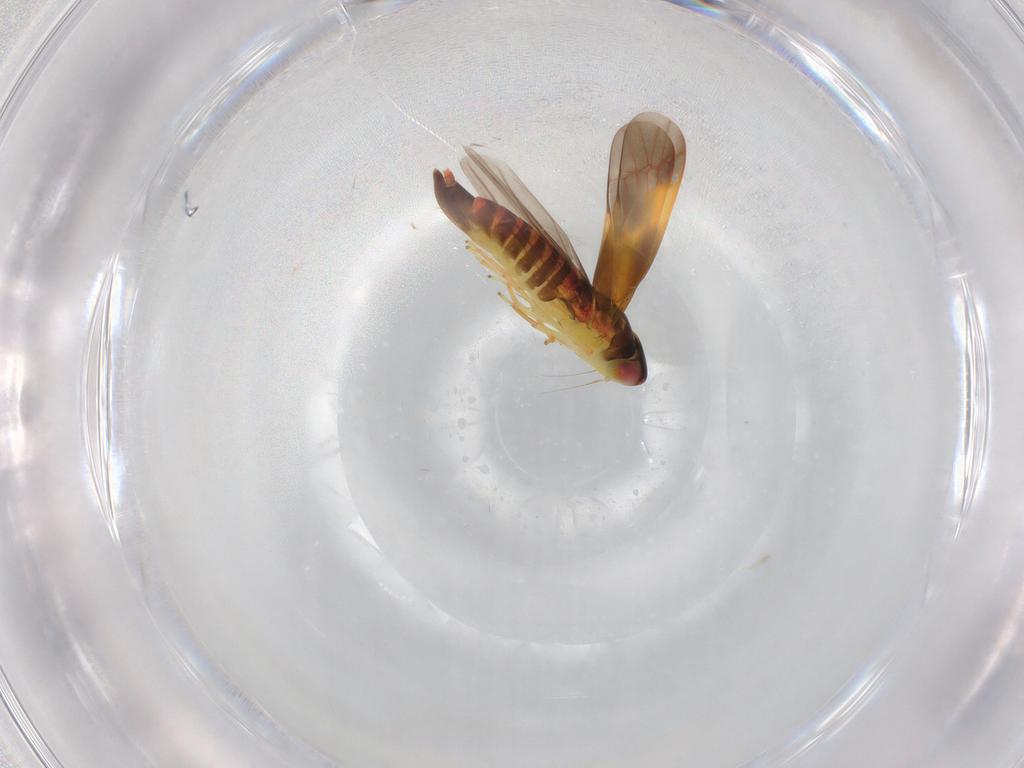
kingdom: Animalia
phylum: Arthropoda
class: Insecta
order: Hemiptera
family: Cicadellidae
